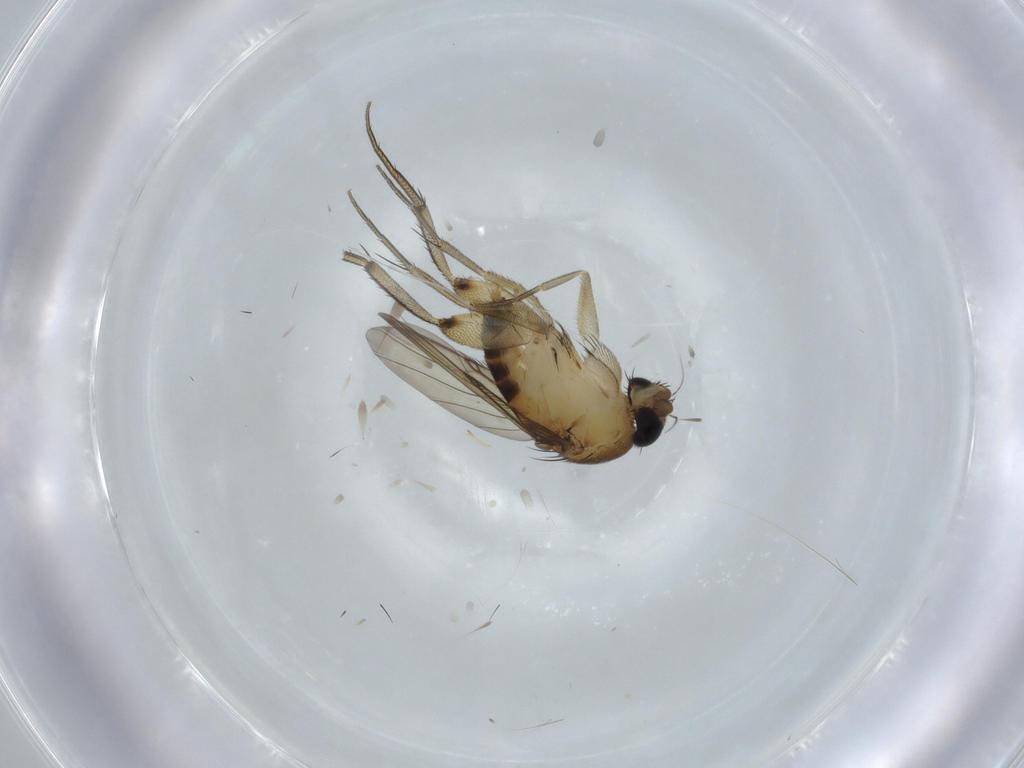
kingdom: Animalia
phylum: Arthropoda
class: Insecta
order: Diptera
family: Phoridae
